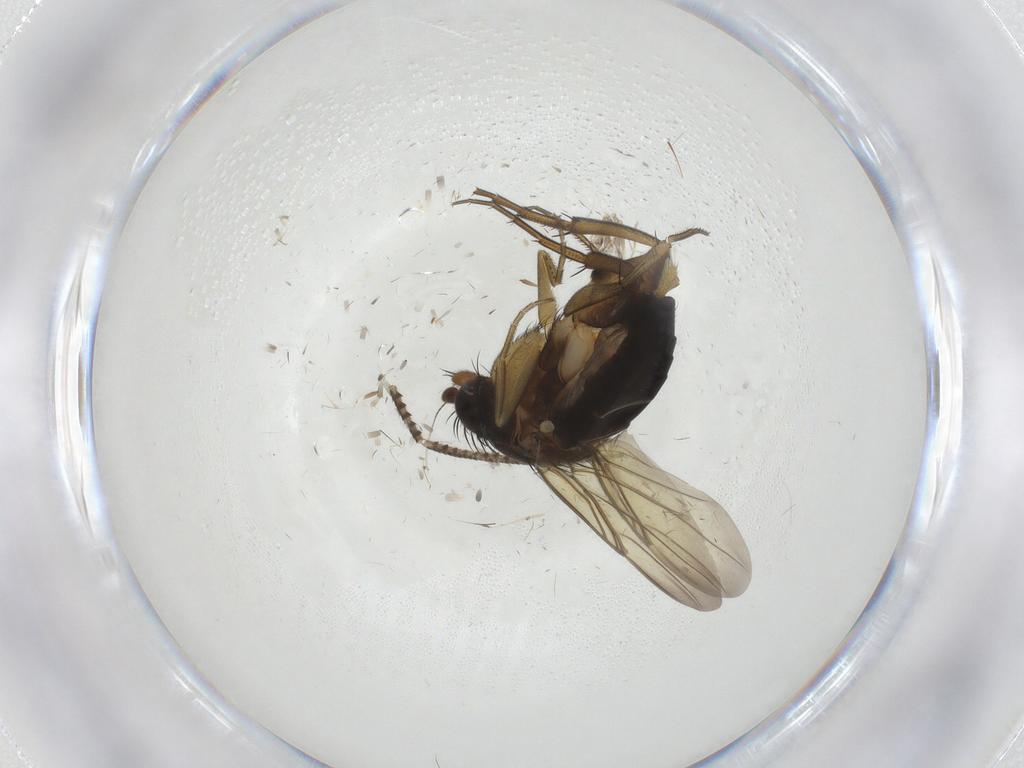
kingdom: Animalia
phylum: Arthropoda
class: Insecta
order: Diptera
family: Phoridae
